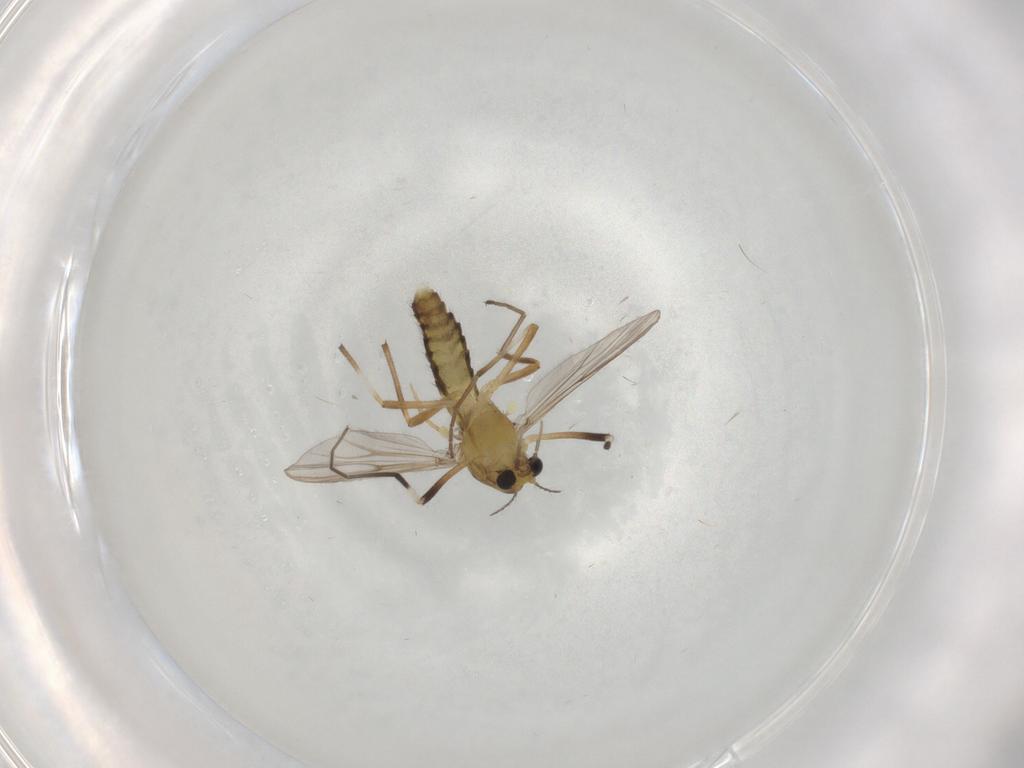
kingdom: Animalia
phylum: Arthropoda
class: Insecta
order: Diptera
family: Chironomidae
